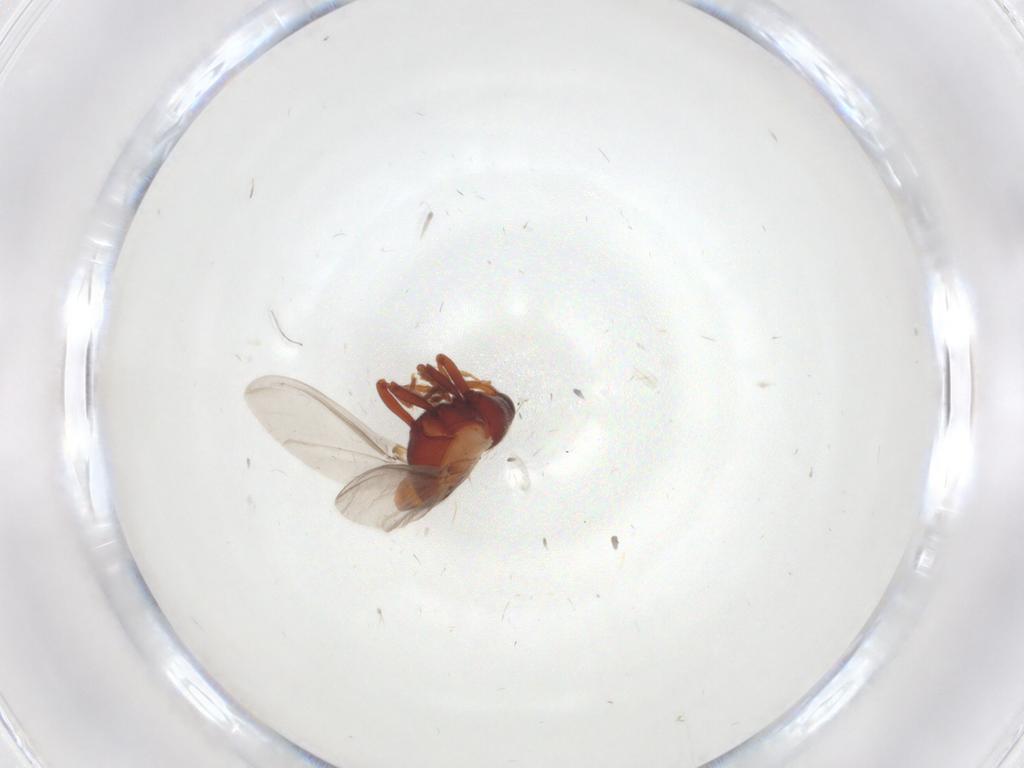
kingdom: Animalia
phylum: Arthropoda
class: Insecta
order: Coleoptera
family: Curculionidae
